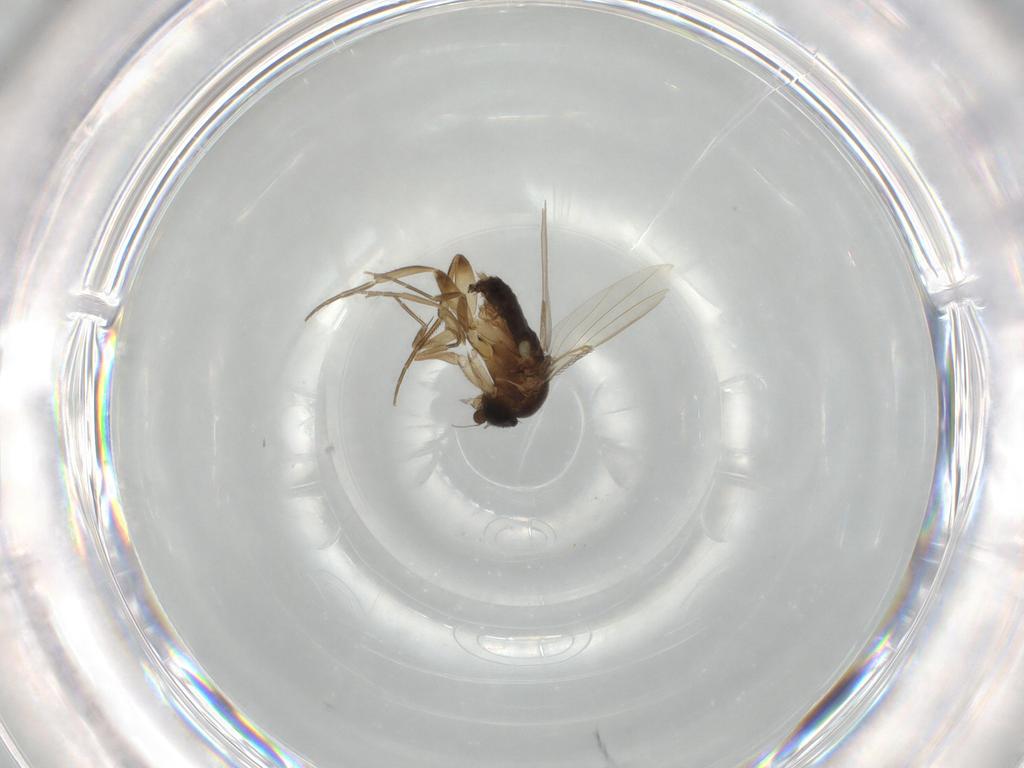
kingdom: Animalia
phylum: Arthropoda
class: Insecta
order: Diptera
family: Phoridae
